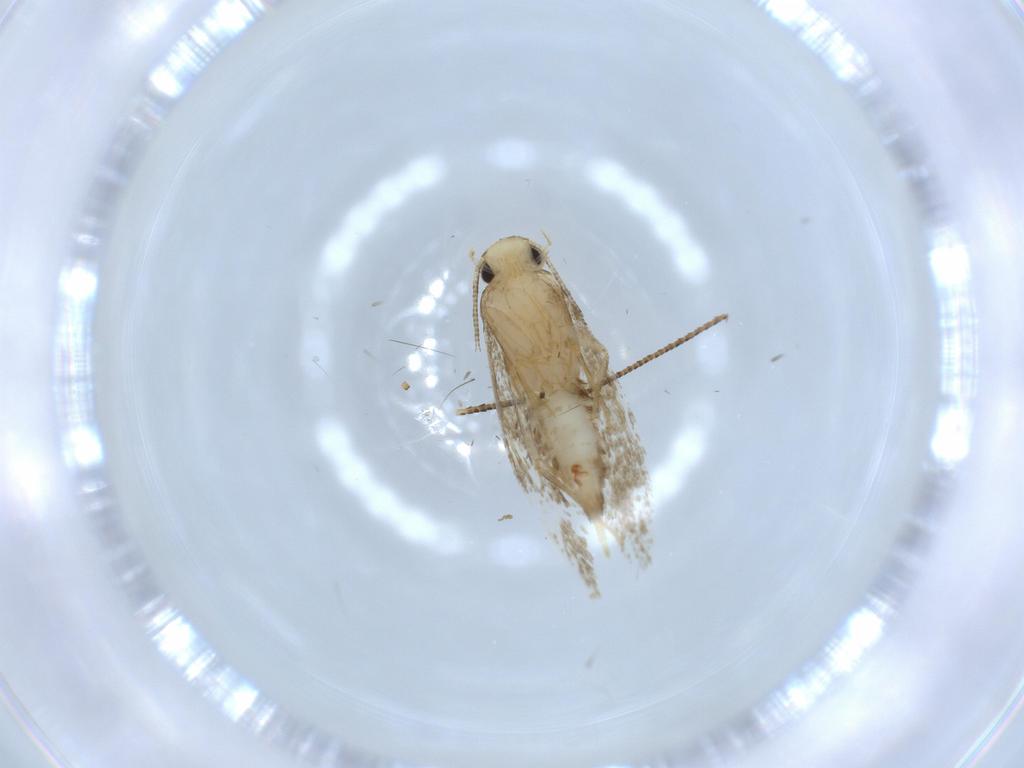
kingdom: Animalia
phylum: Arthropoda
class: Insecta
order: Lepidoptera
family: Tineidae
